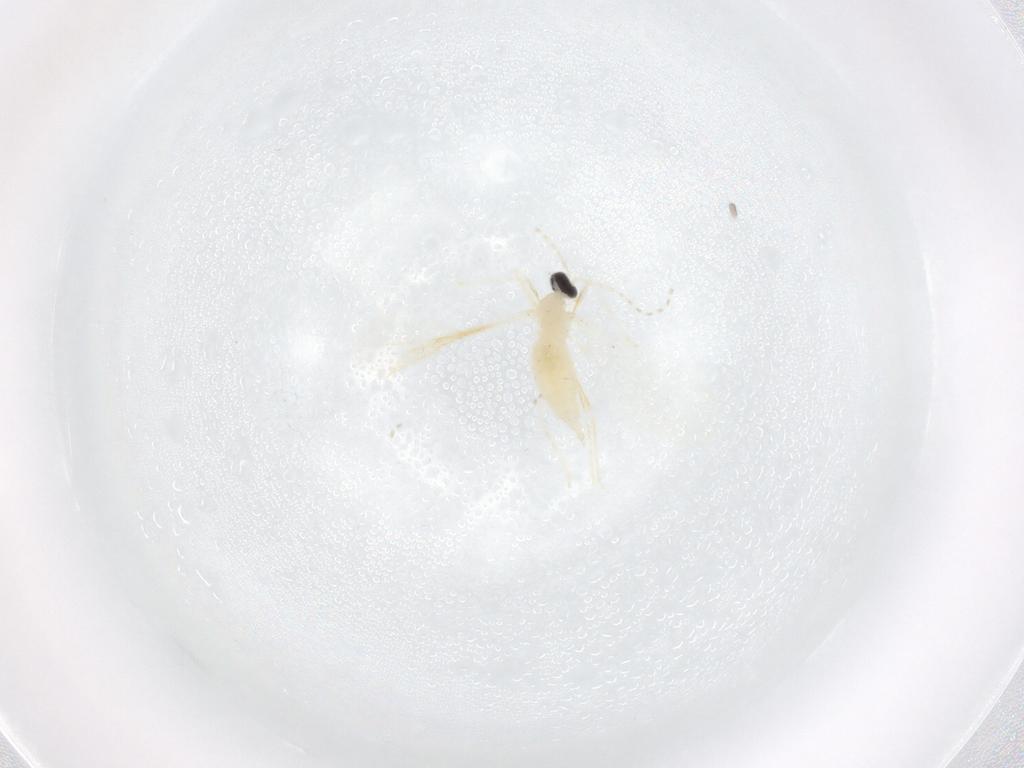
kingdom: Animalia
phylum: Arthropoda
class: Insecta
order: Diptera
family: Cecidomyiidae
